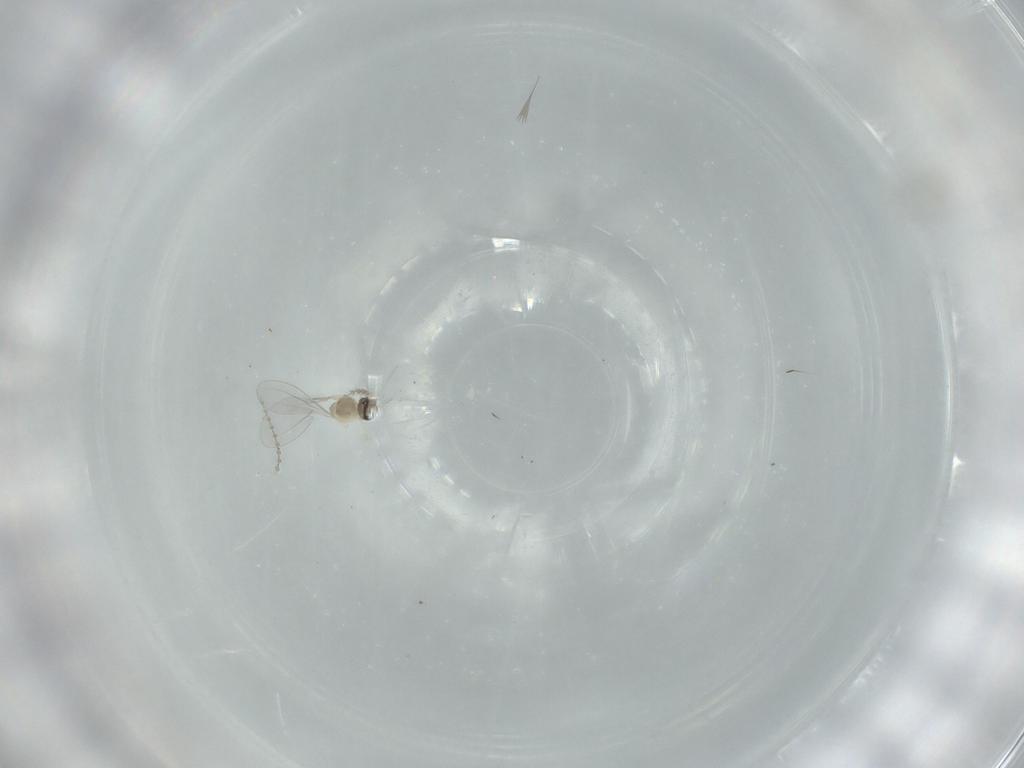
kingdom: Animalia
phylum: Arthropoda
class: Insecta
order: Diptera
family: Cecidomyiidae
